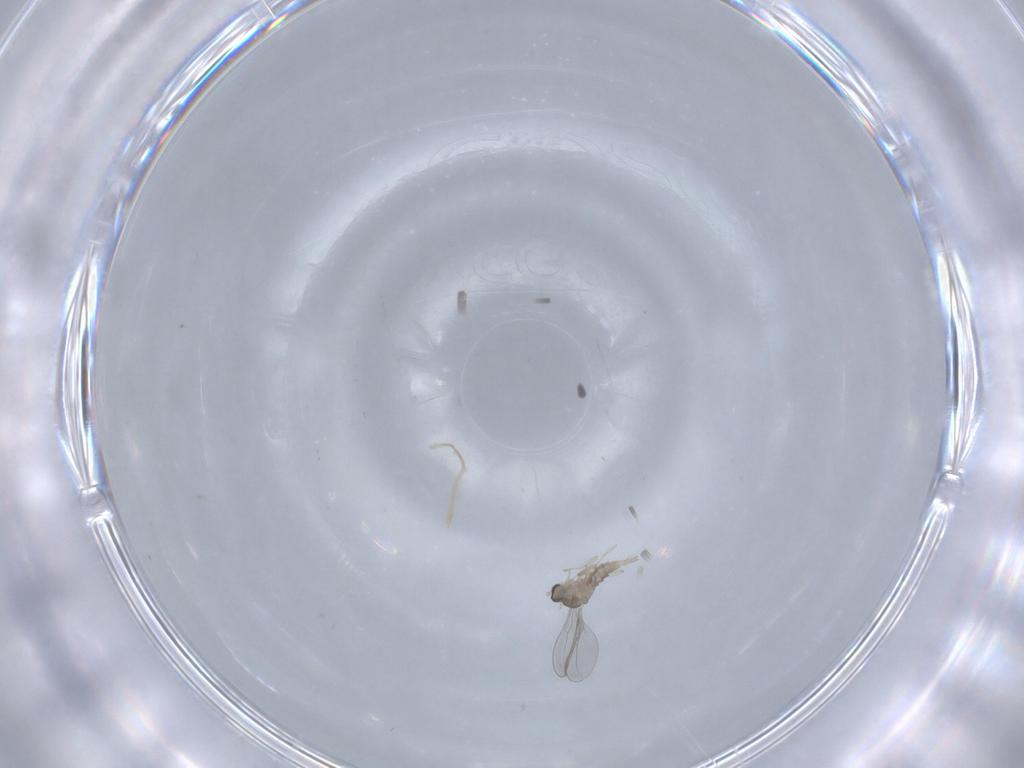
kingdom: Animalia
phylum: Arthropoda
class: Insecta
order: Diptera
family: Cecidomyiidae
